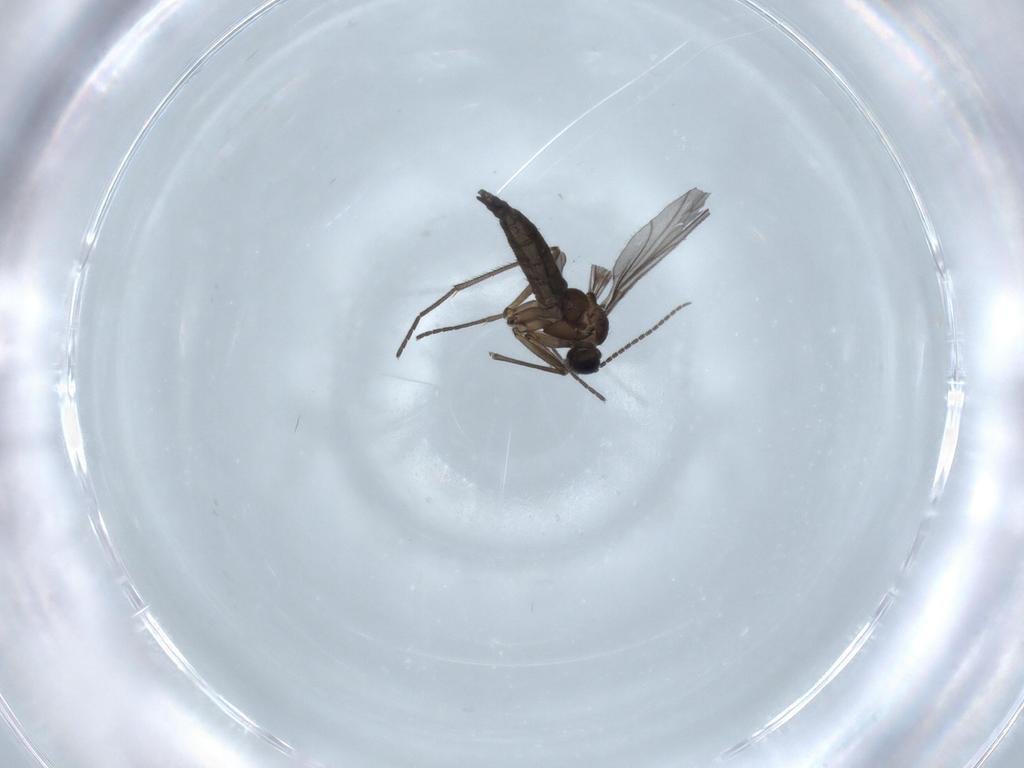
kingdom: Animalia
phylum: Arthropoda
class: Insecta
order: Diptera
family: Sciaridae
